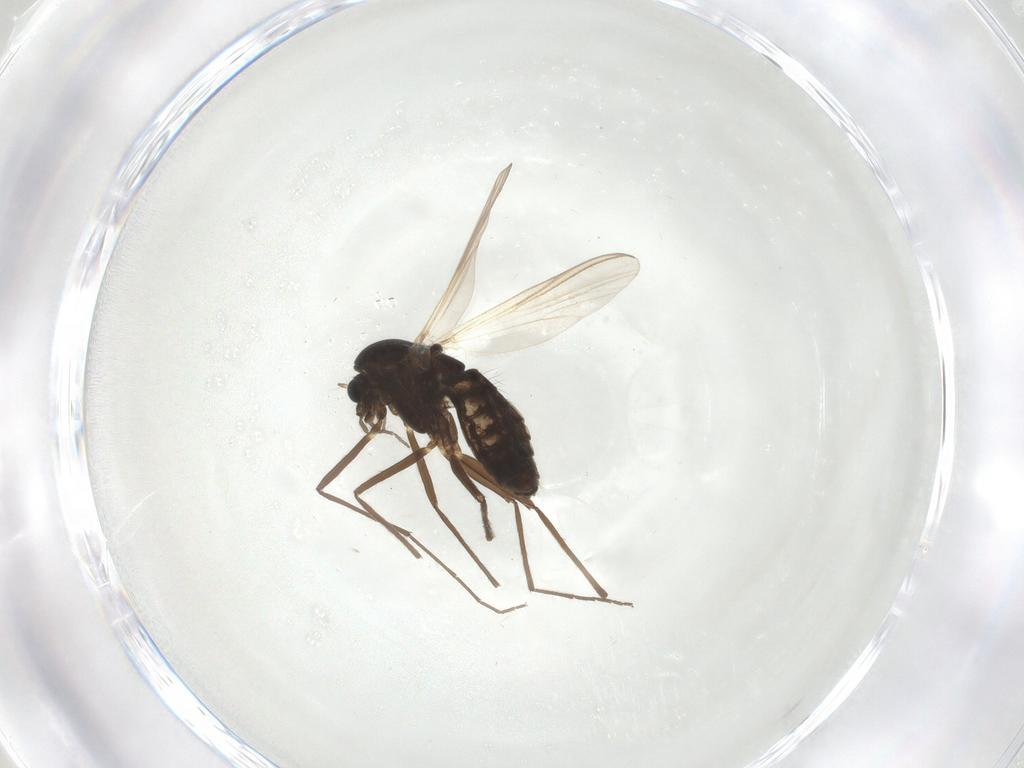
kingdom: Animalia
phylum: Arthropoda
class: Insecta
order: Diptera
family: Chironomidae
